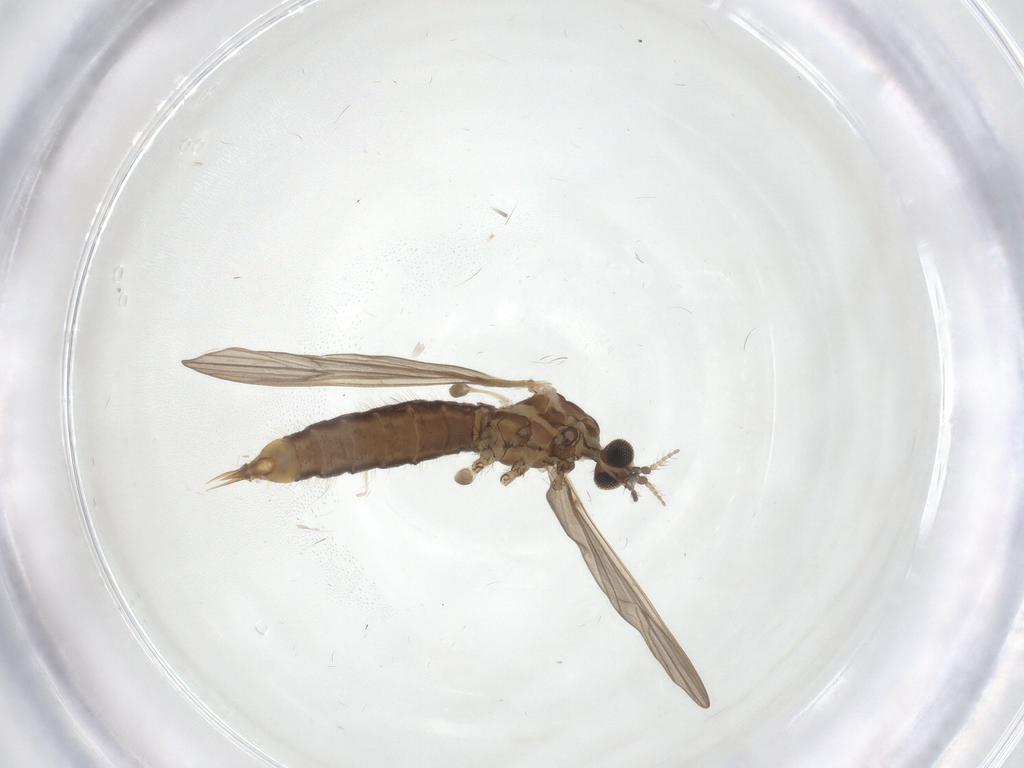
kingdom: Animalia
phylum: Arthropoda
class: Insecta
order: Diptera
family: Limoniidae
